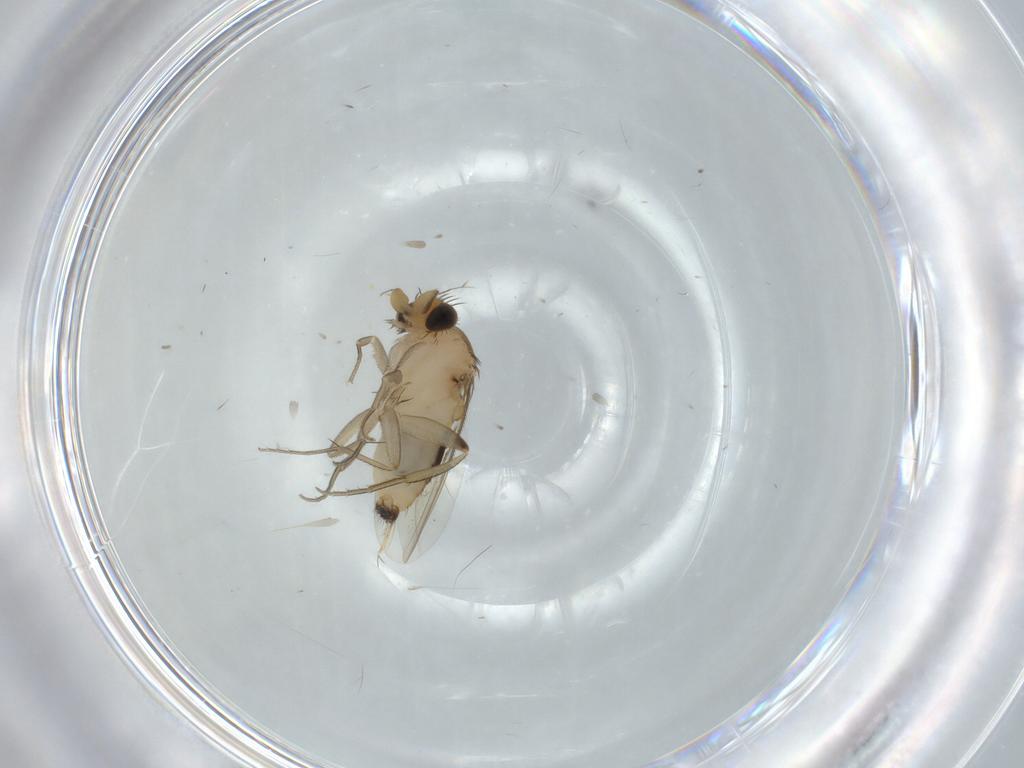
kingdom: Animalia
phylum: Arthropoda
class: Insecta
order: Diptera
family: Phoridae
